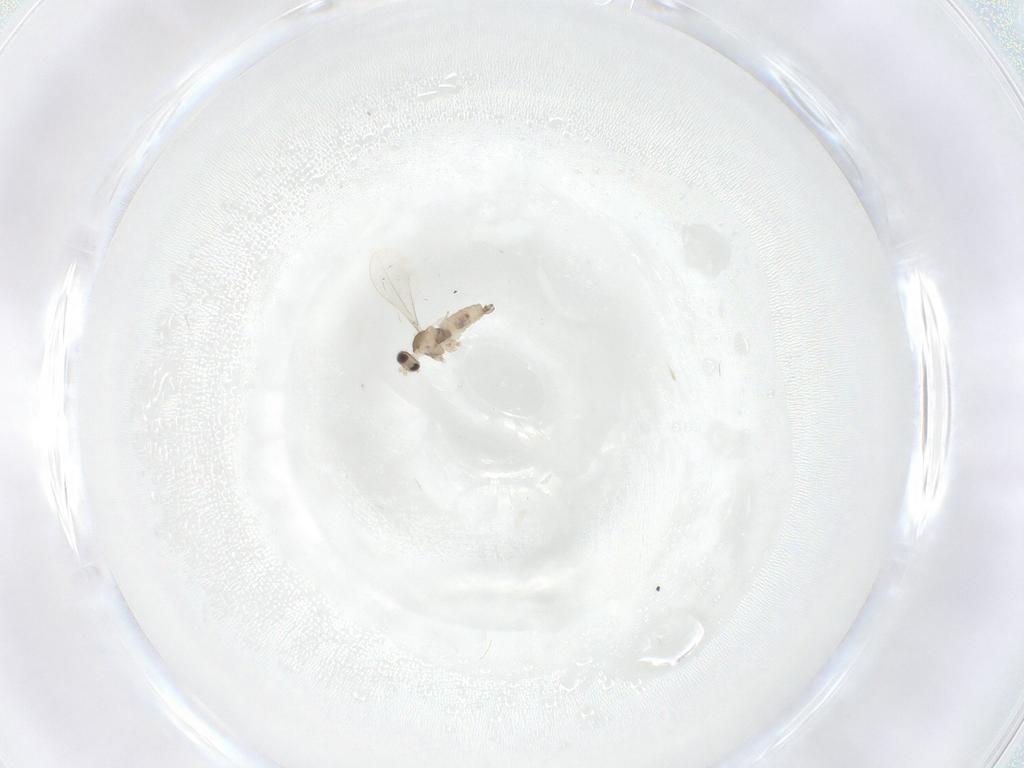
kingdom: Animalia
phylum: Arthropoda
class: Insecta
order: Diptera
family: Cecidomyiidae
